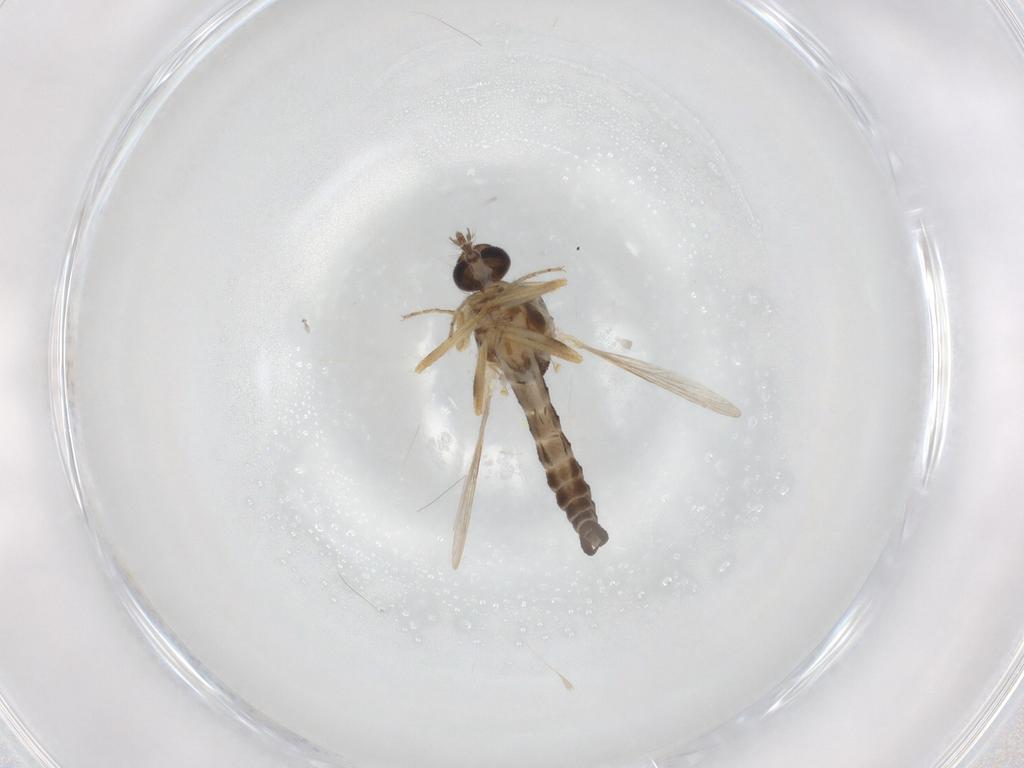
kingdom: Animalia
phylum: Arthropoda
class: Insecta
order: Diptera
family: Ceratopogonidae
